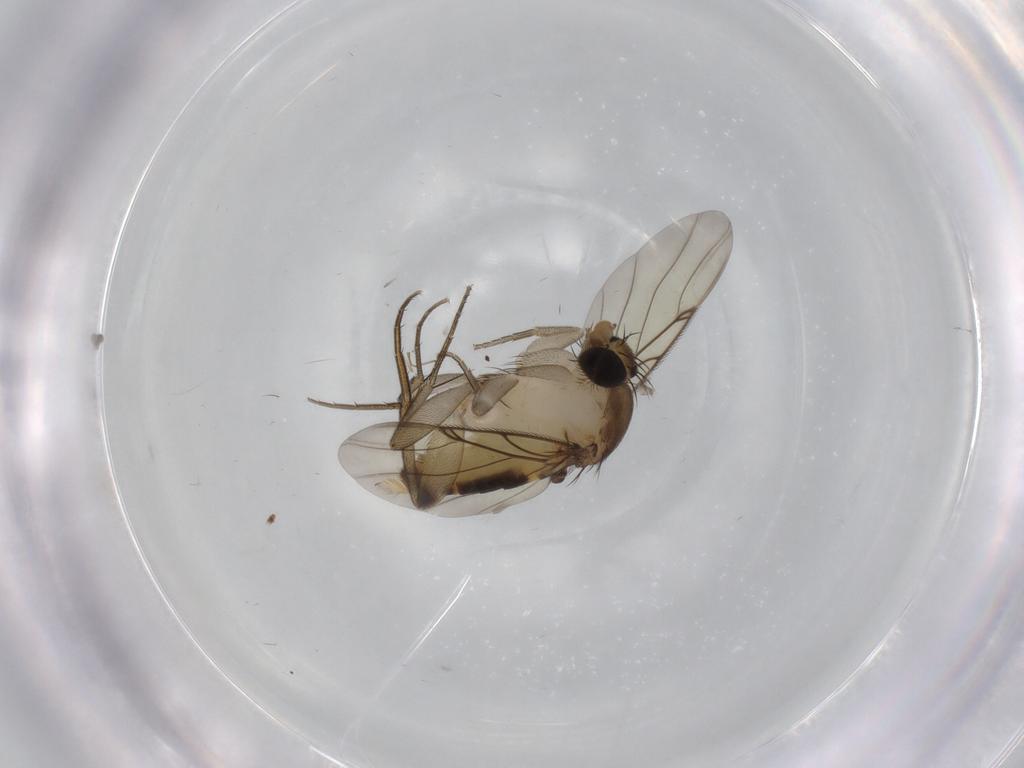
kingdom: Animalia
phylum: Arthropoda
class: Insecta
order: Diptera
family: Phoridae
